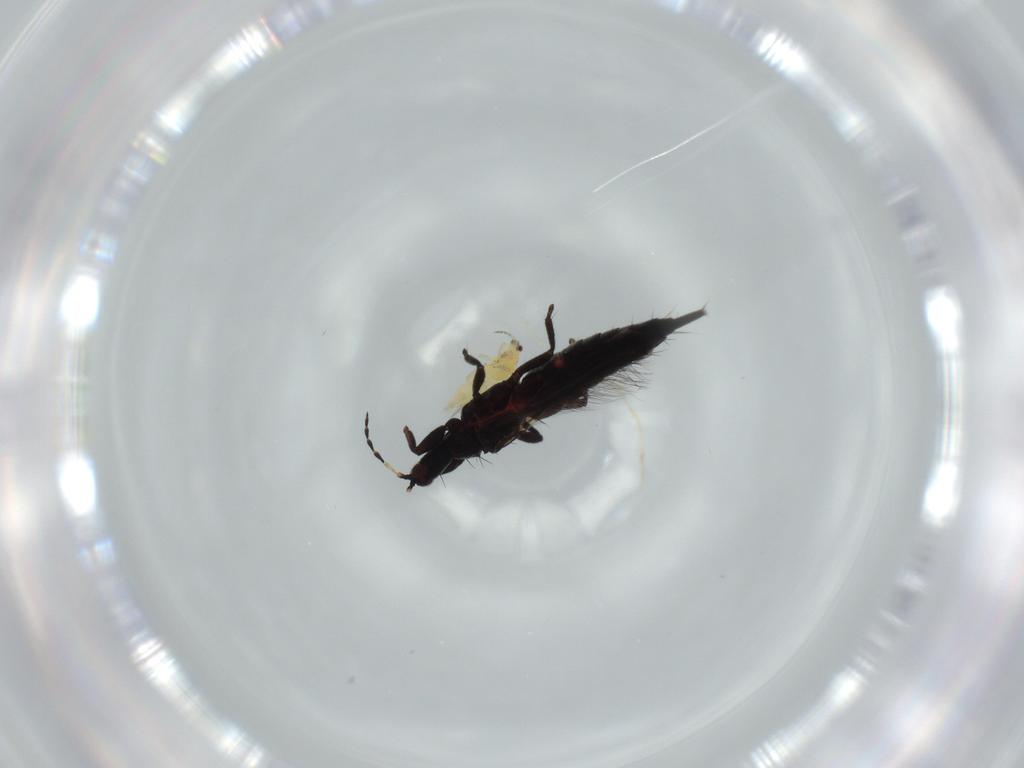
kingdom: Animalia
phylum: Arthropoda
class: Insecta
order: Thysanoptera
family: Phlaeothripidae
